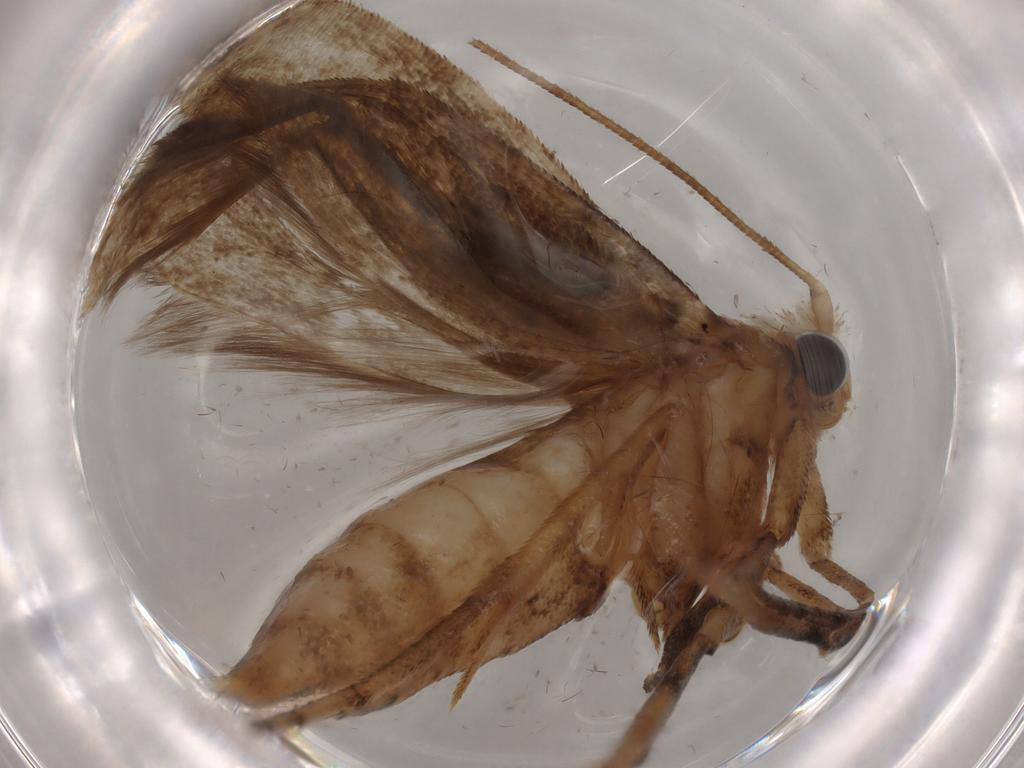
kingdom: Animalia
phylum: Arthropoda
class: Insecta
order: Lepidoptera
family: Yponomeutidae
